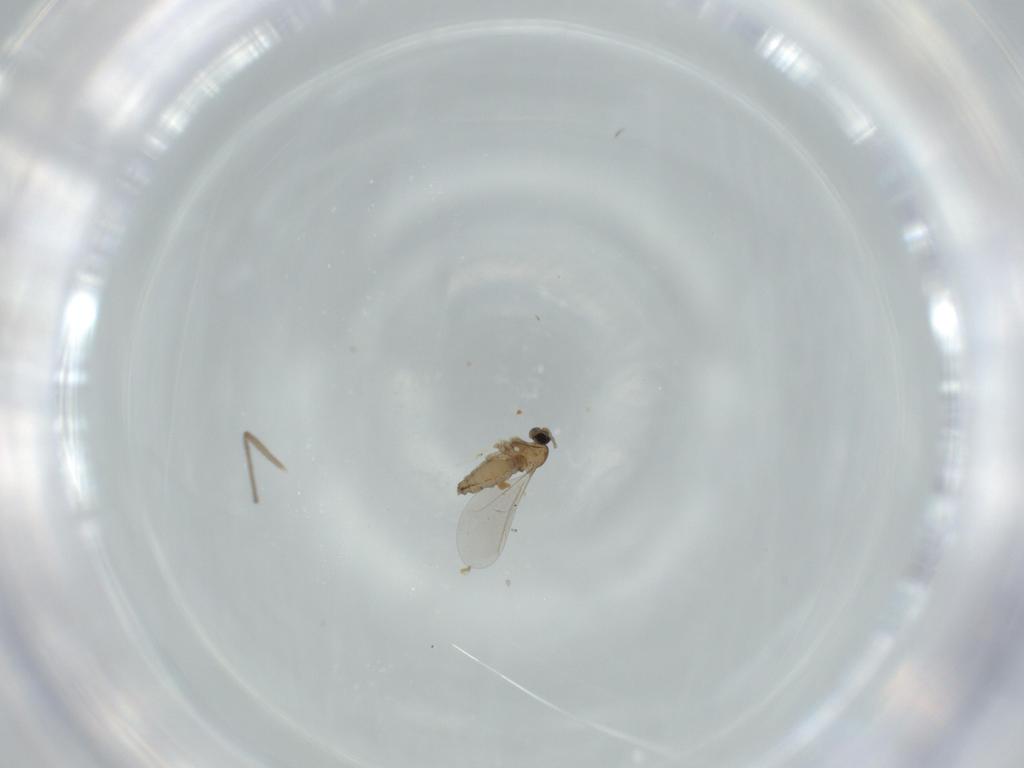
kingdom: Animalia
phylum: Arthropoda
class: Insecta
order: Diptera
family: Cecidomyiidae
